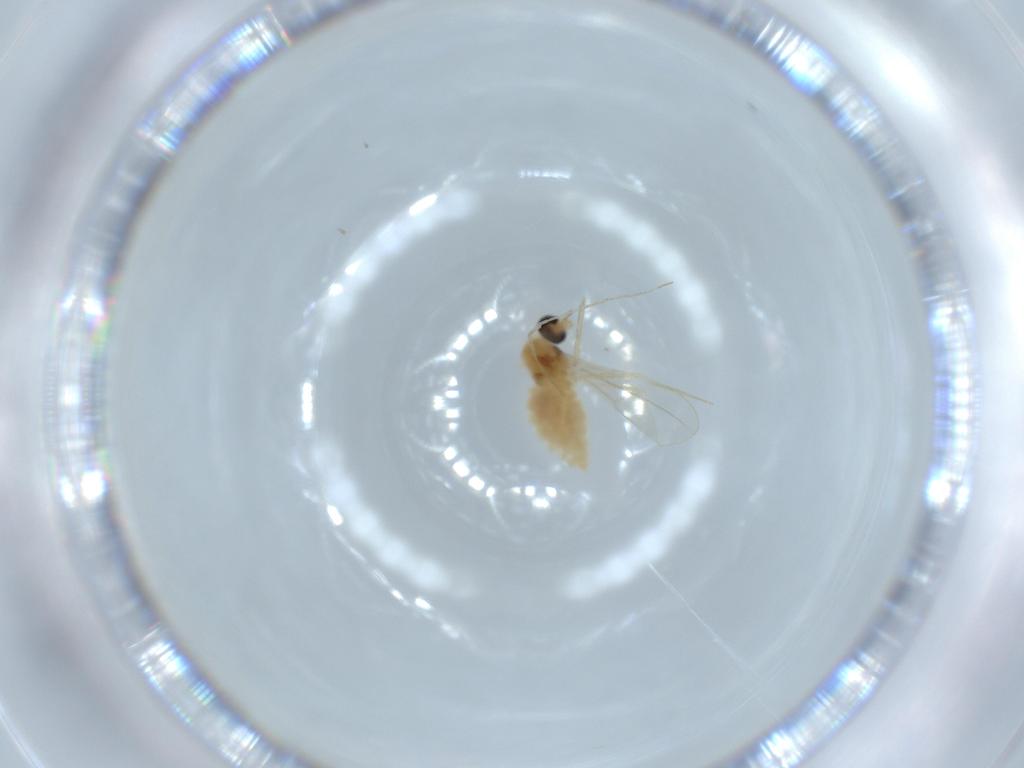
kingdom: Animalia
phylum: Arthropoda
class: Insecta
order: Diptera
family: Cecidomyiidae
